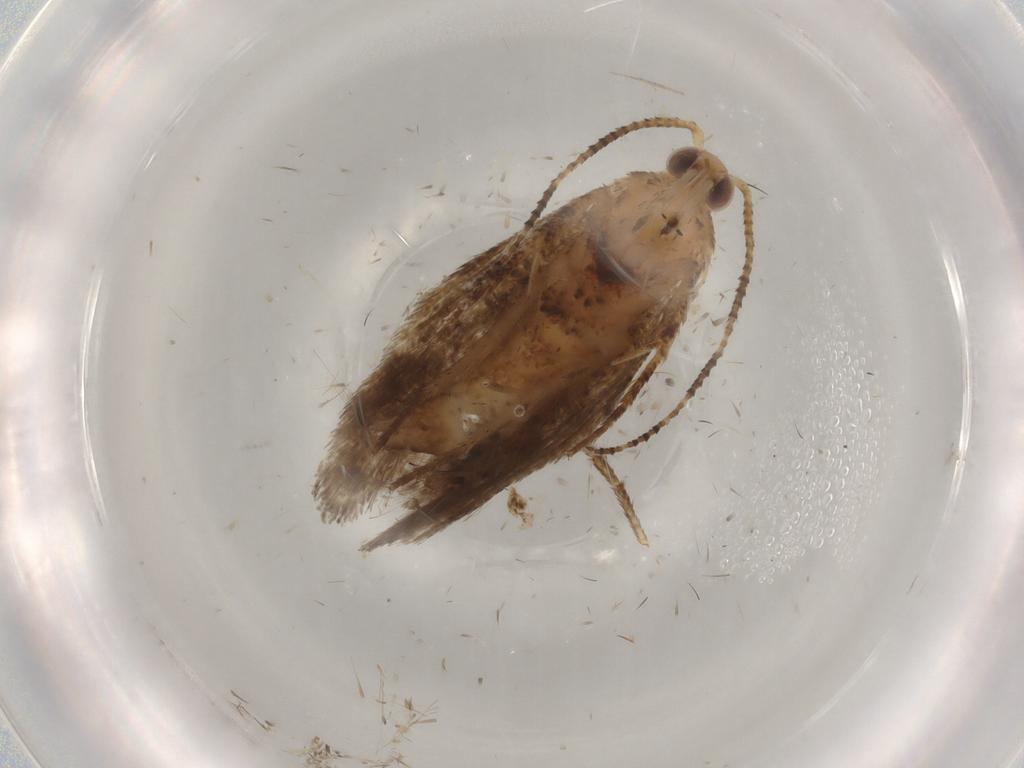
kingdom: Animalia
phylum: Arthropoda
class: Insecta
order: Lepidoptera
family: Ypsolophidae
